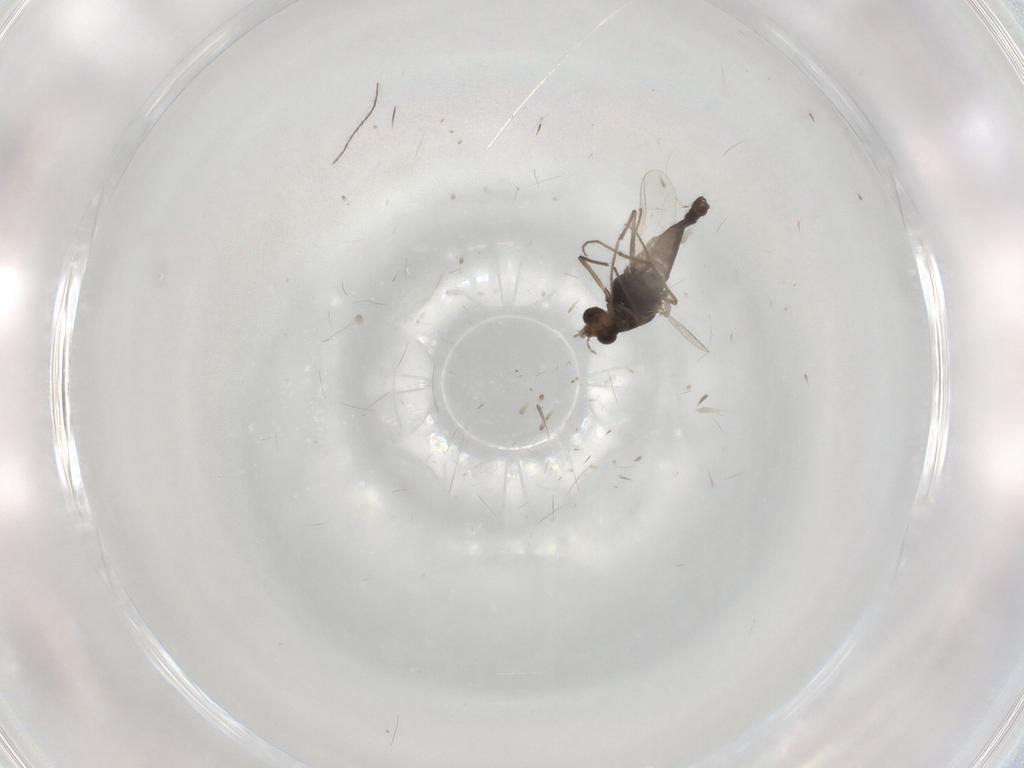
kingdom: Animalia
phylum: Arthropoda
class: Insecta
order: Diptera
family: Chironomidae
